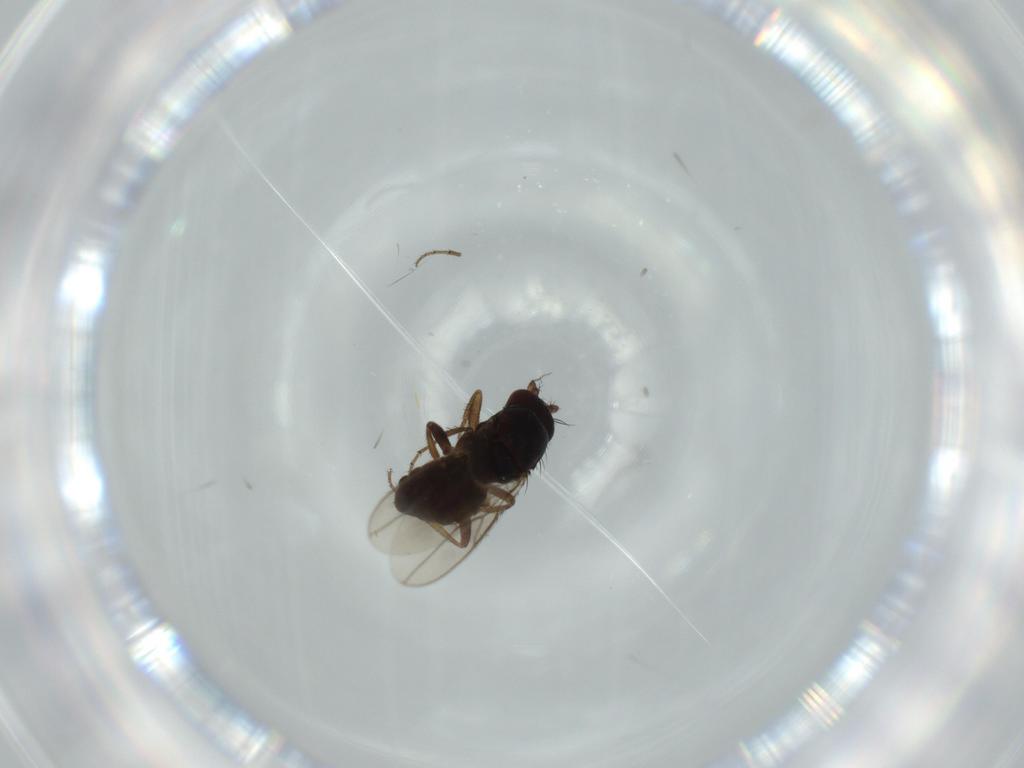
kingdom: Animalia
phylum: Arthropoda
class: Insecta
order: Diptera
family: Sphaeroceridae
